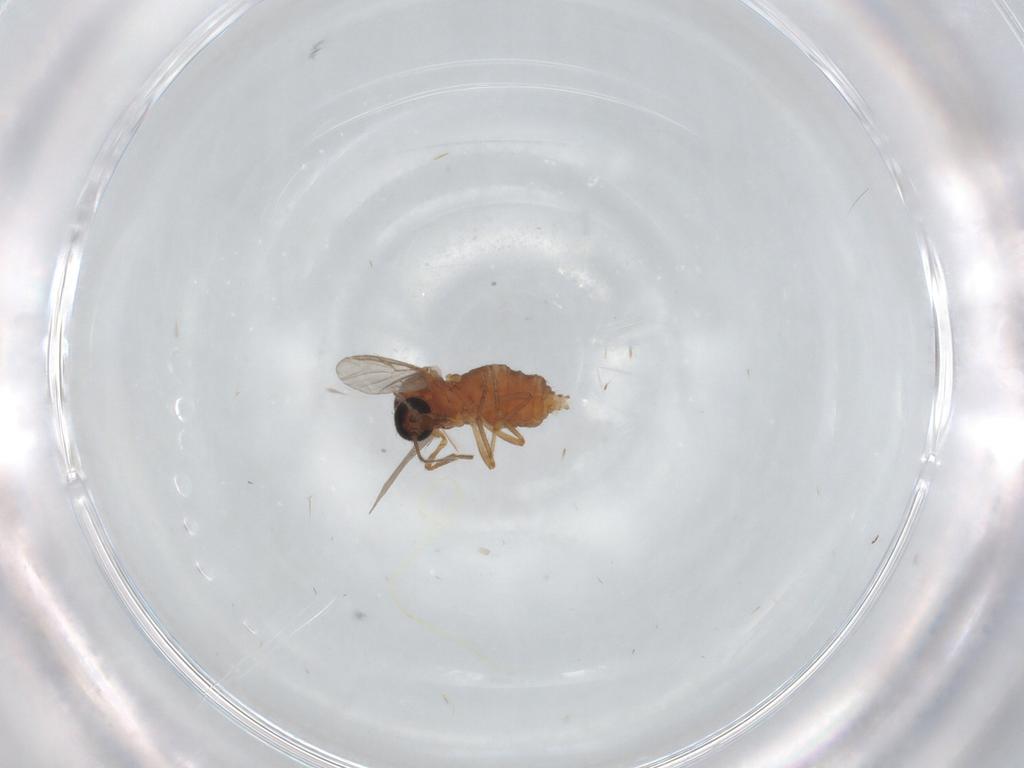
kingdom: Animalia
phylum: Arthropoda
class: Insecta
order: Diptera
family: Ceratopogonidae
